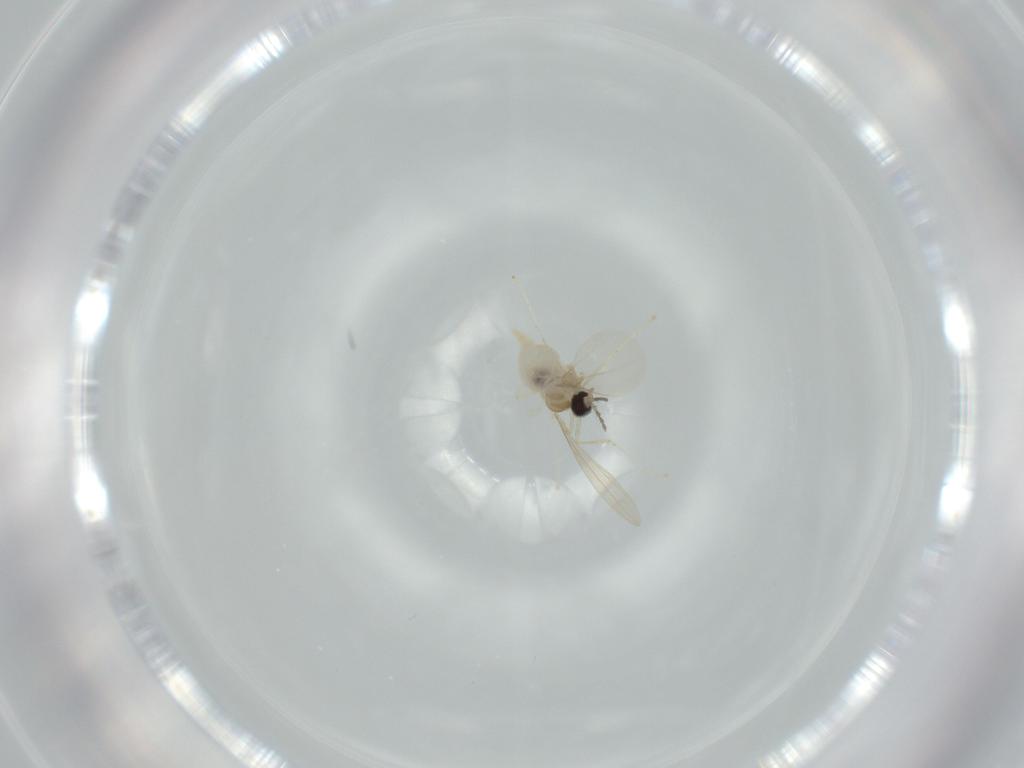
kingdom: Animalia
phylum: Arthropoda
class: Insecta
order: Diptera
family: Cecidomyiidae
